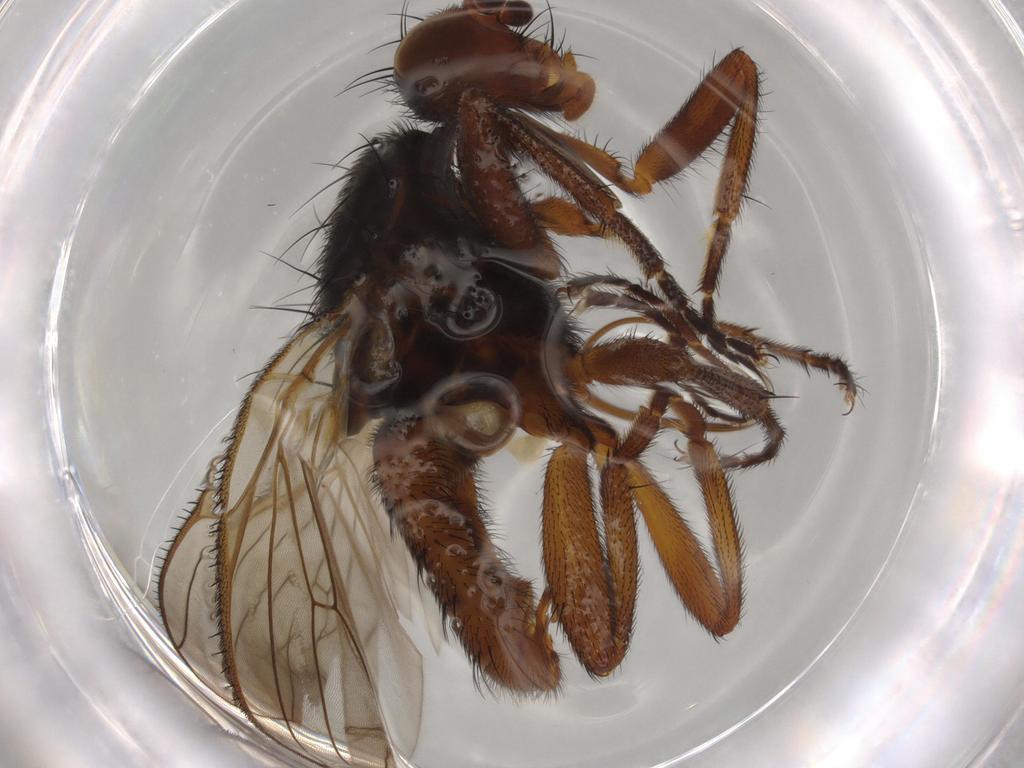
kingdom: Animalia
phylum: Arthropoda
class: Insecta
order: Diptera
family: Heleomyzidae
